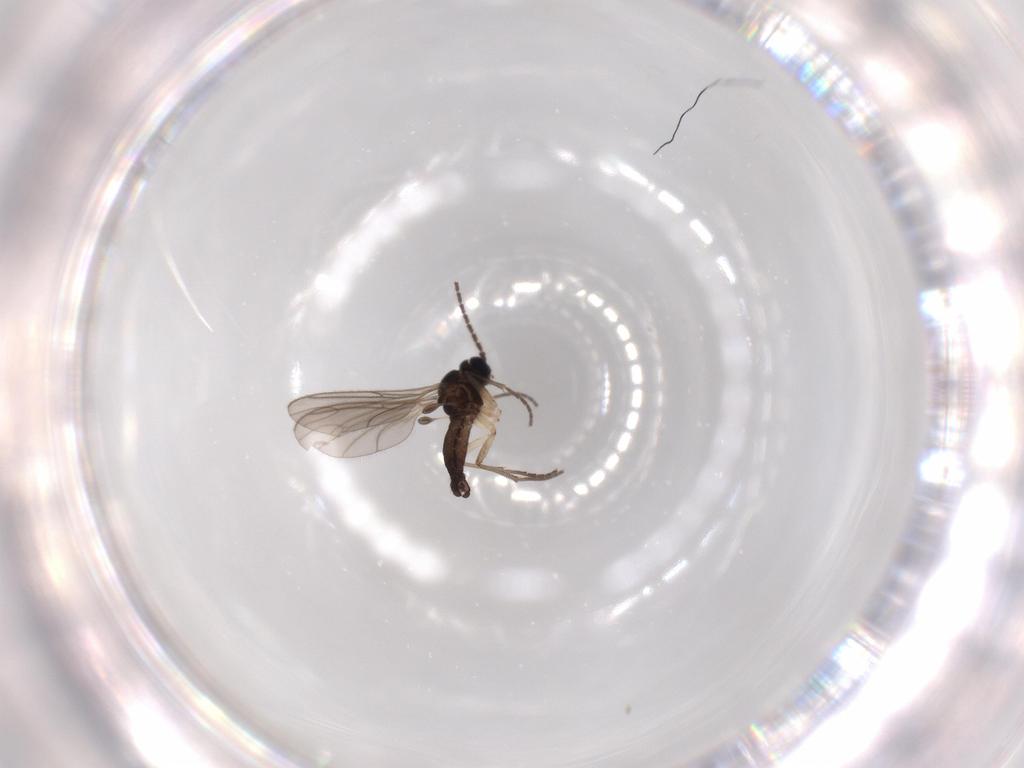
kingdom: Animalia
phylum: Arthropoda
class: Insecta
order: Diptera
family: Sciaridae
